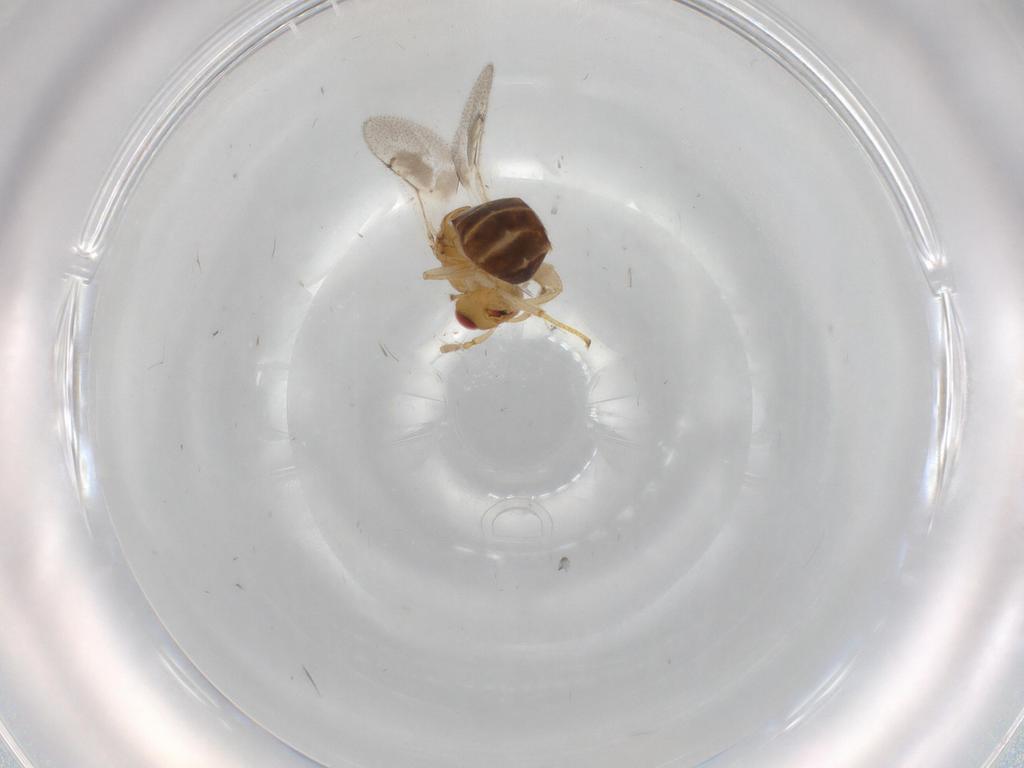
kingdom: Animalia
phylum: Arthropoda
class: Insecta
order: Hymenoptera
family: Agaonidae
